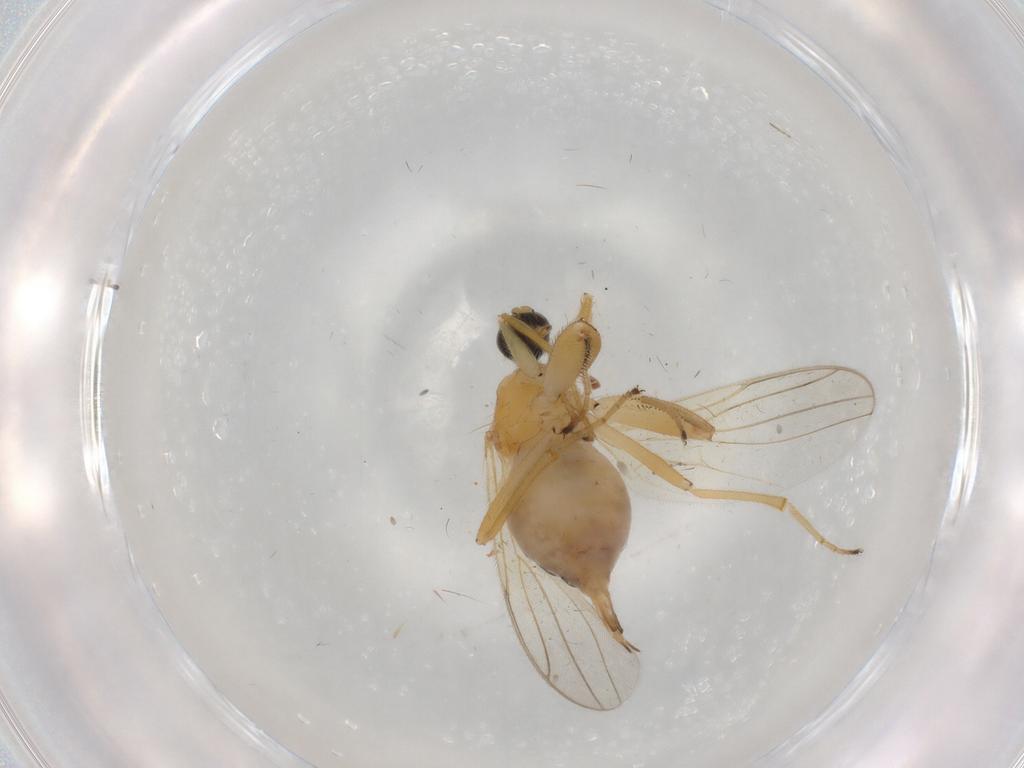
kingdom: Animalia
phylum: Arthropoda
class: Insecta
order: Diptera
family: Hybotidae
